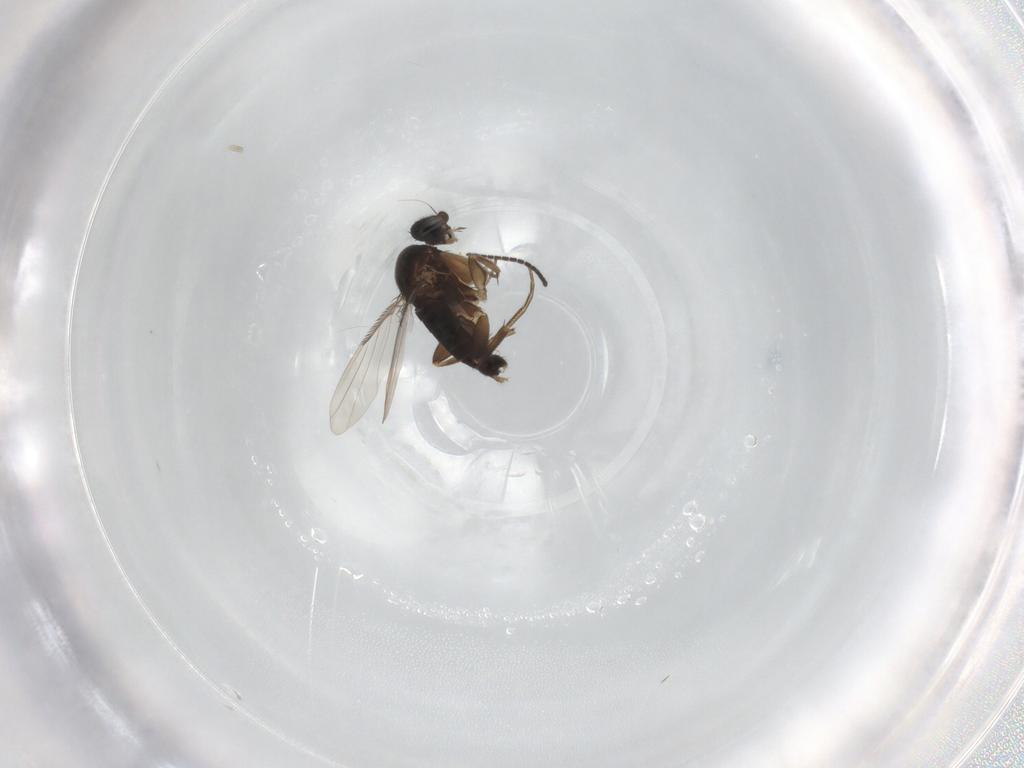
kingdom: Animalia
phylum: Arthropoda
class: Insecta
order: Diptera
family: Phoridae
